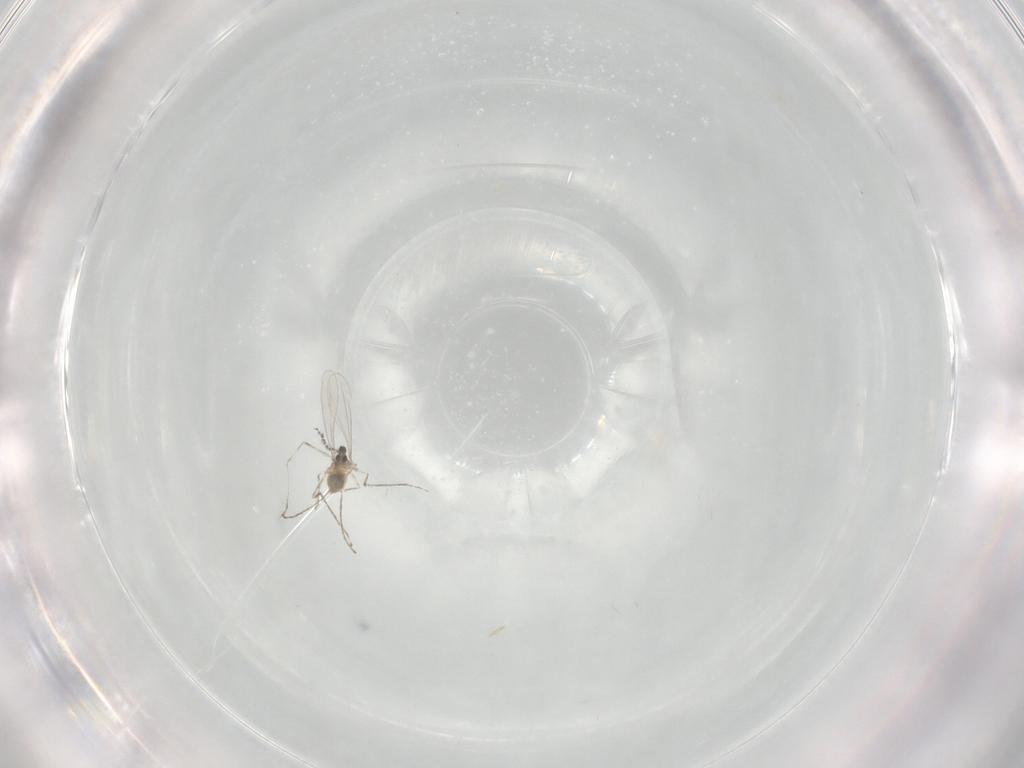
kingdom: Animalia
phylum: Arthropoda
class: Insecta
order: Diptera
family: Cecidomyiidae
